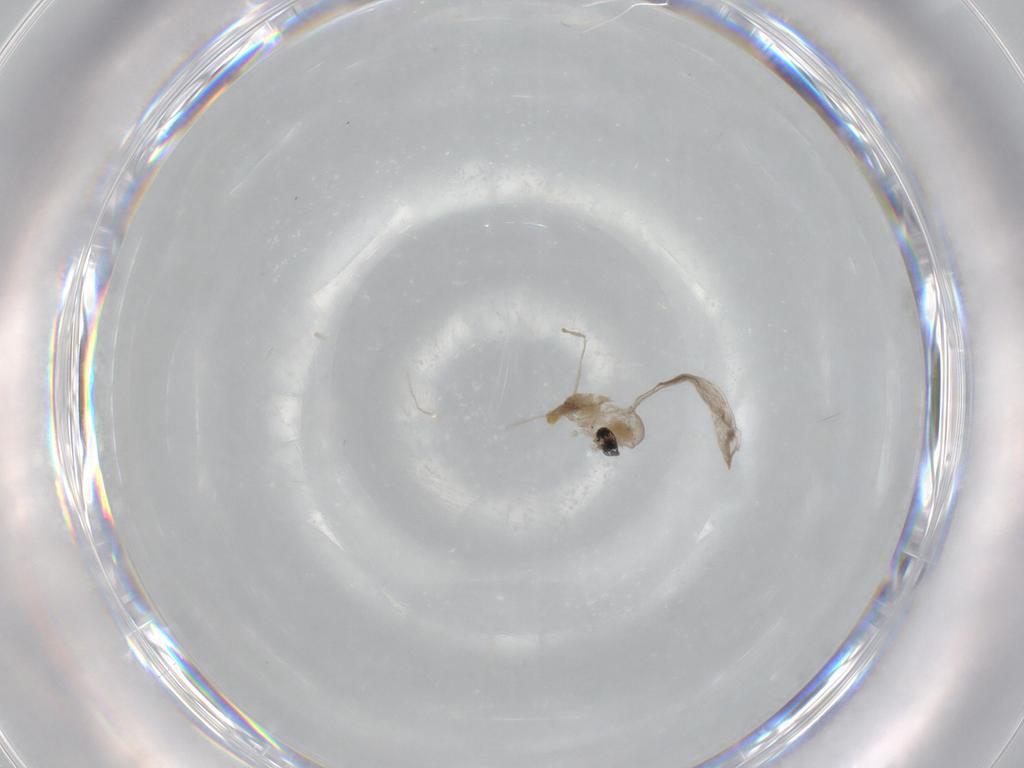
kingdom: Animalia
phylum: Arthropoda
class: Insecta
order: Diptera
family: Cecidomyiidae
